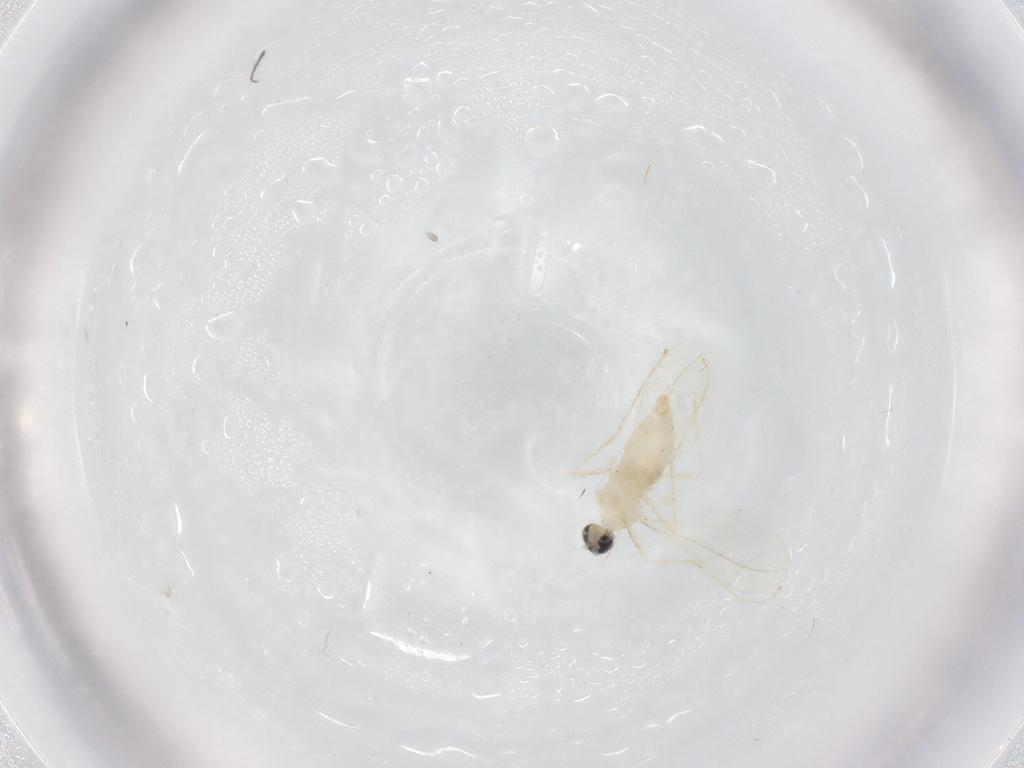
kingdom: Animalia
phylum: Arthropoda
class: Insecta
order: Diptera
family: Cecidomyiidae
